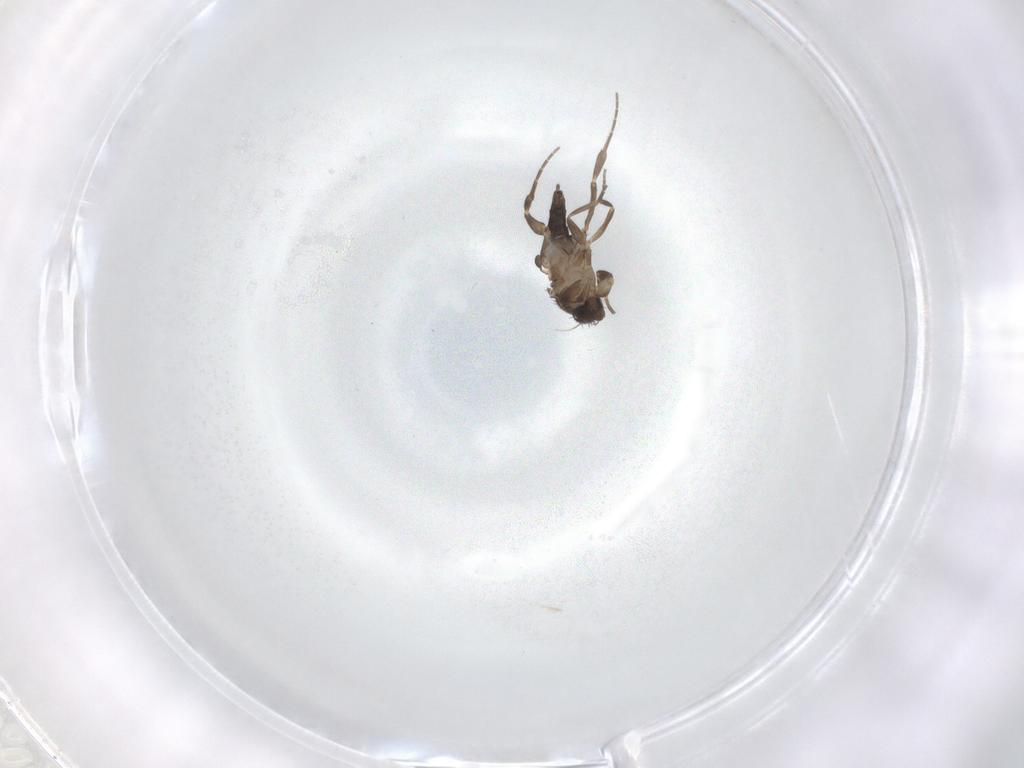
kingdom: Animalia
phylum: Arthropoda
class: Insecta
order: Diptera
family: Phoridae
